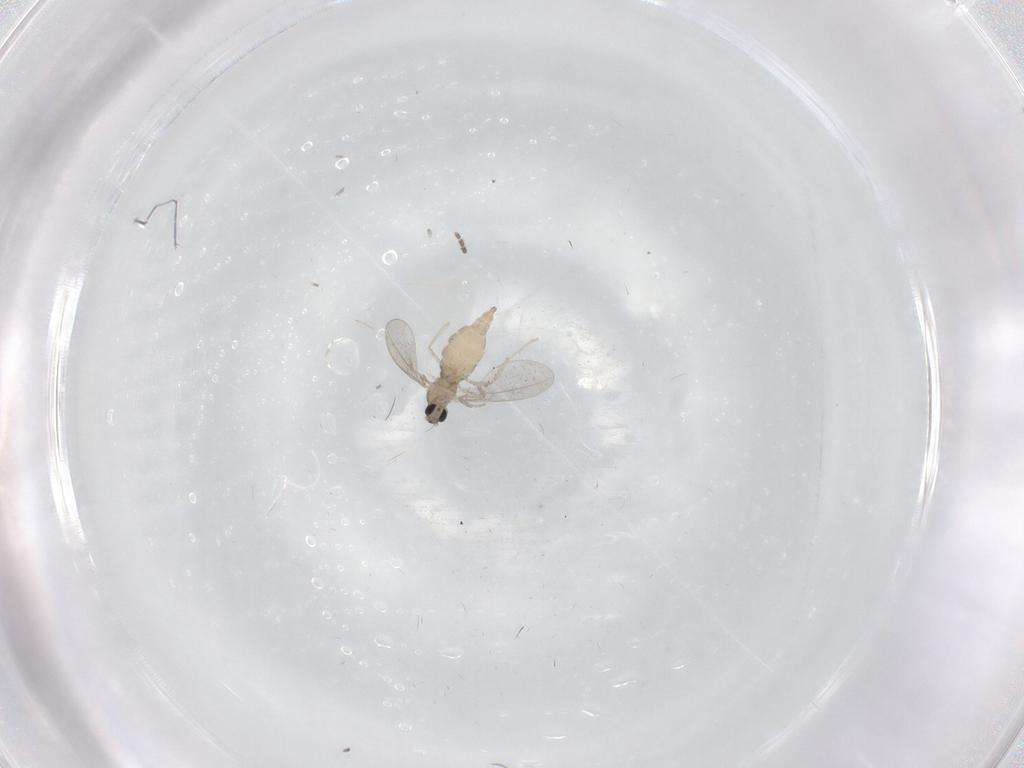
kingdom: Animalia
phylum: Arthropoda
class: Insecta
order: Diptera
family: Cecidomyiidae
